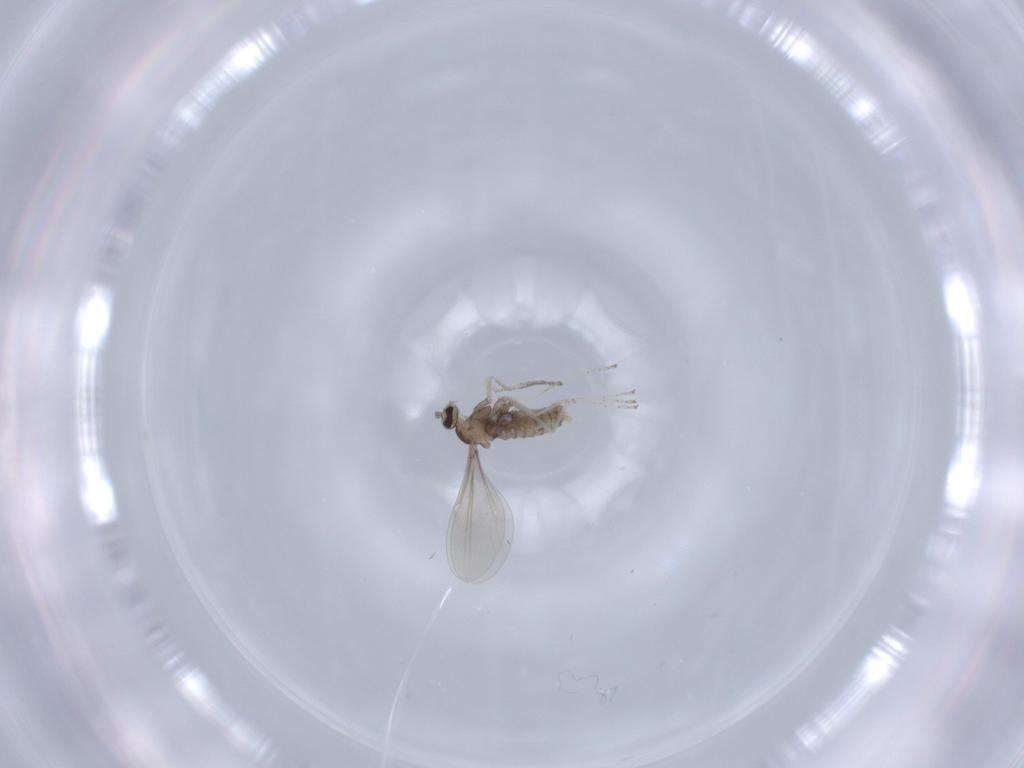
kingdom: Animalia
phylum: Arthropoda
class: Insecta
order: Diptera
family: Cecidomyiidae
